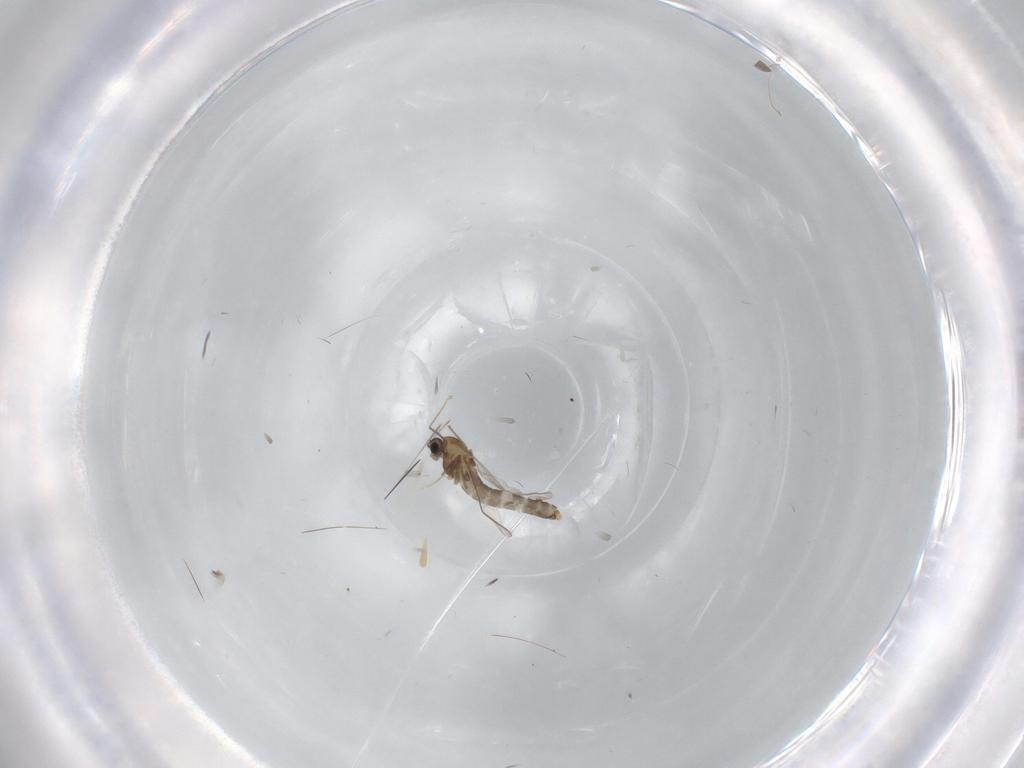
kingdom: Animalia
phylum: Arthropoda
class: Insecta
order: Diptera
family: Chironomidae
